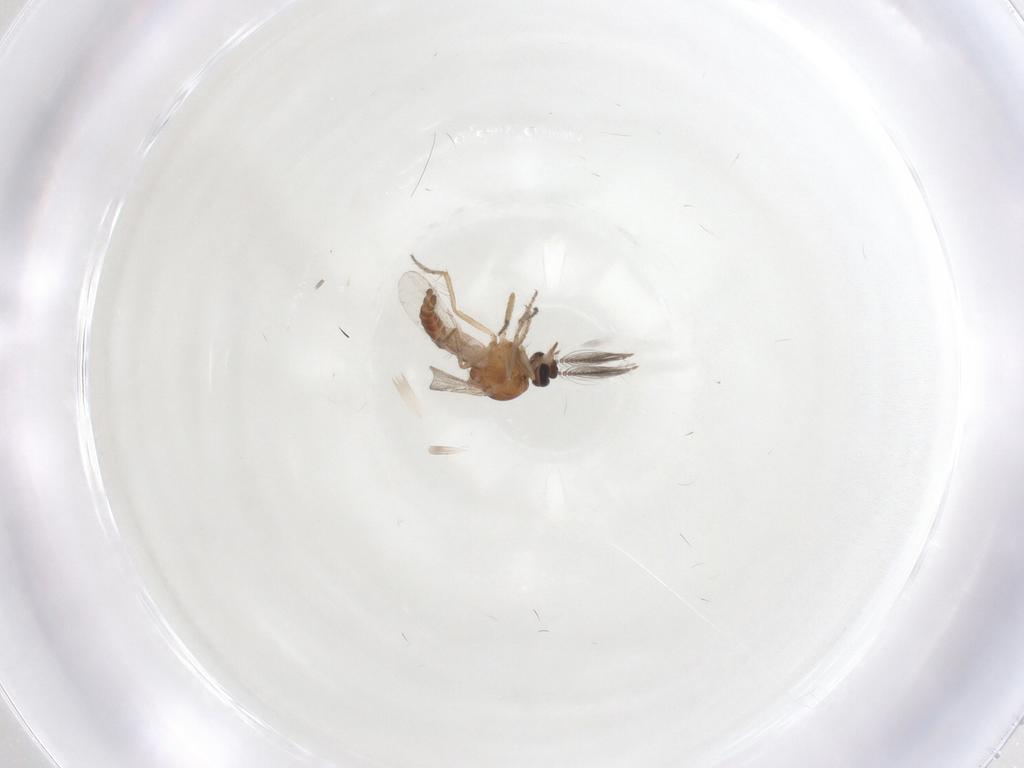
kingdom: Animalia
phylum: Arthropoda
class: Insecta
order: Diptera
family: Ceratopogonidae
